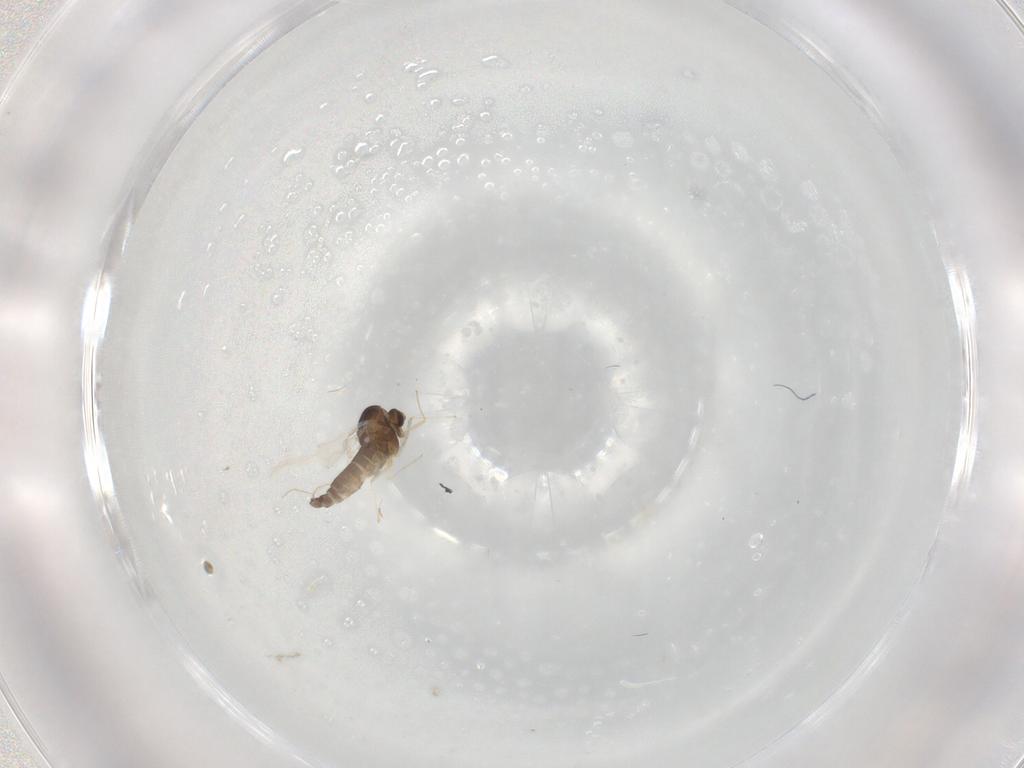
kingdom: Animalia
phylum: Arthropoda
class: Insecta
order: Diptera
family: Chironomidae
